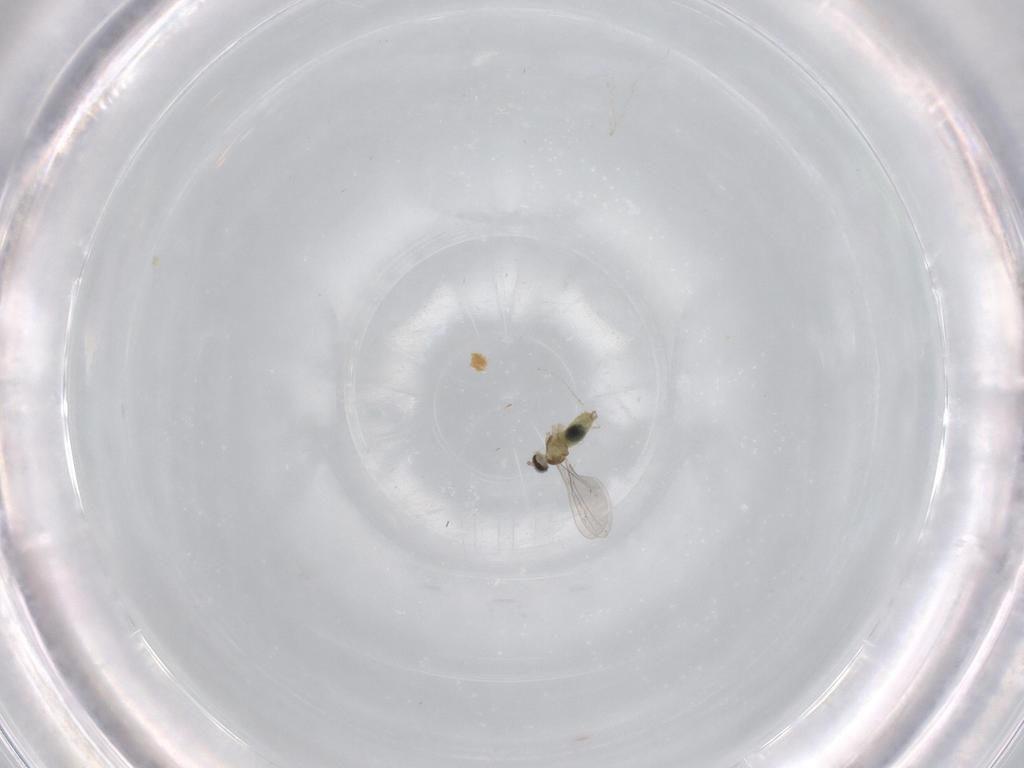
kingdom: Animalia
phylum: Arthropoda
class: Insecta
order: Diptera
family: Cecidomyiidae
